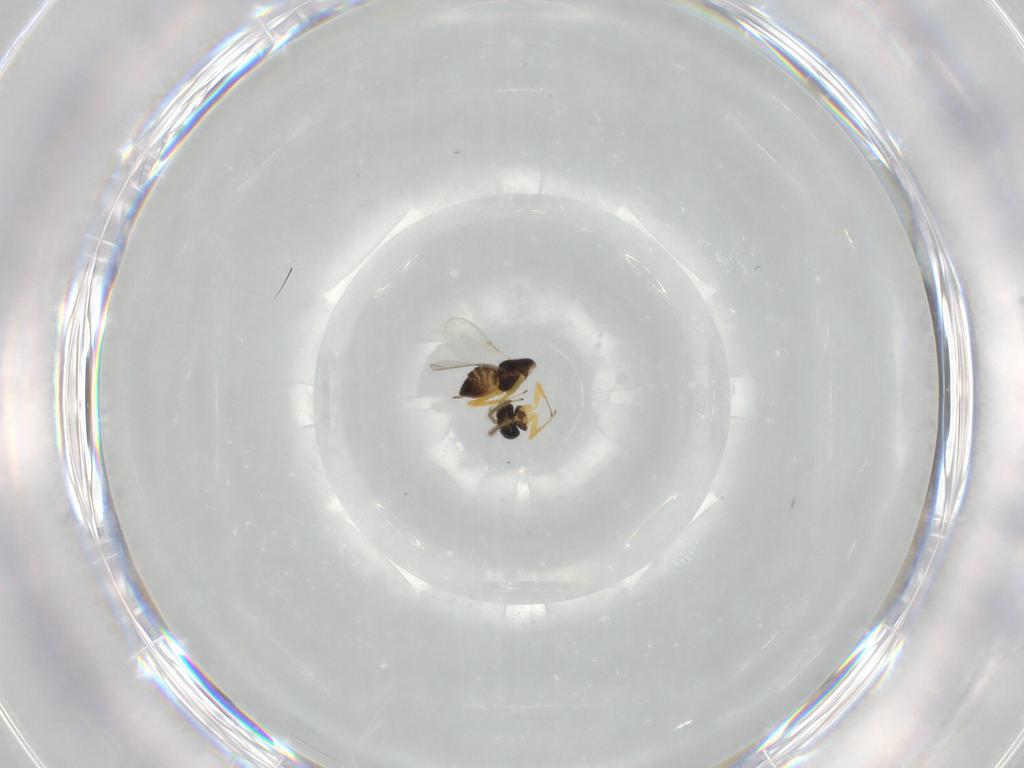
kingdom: Animalia
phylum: Arthropoda
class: Insecta
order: Hymenoptera
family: Encyrtidae
